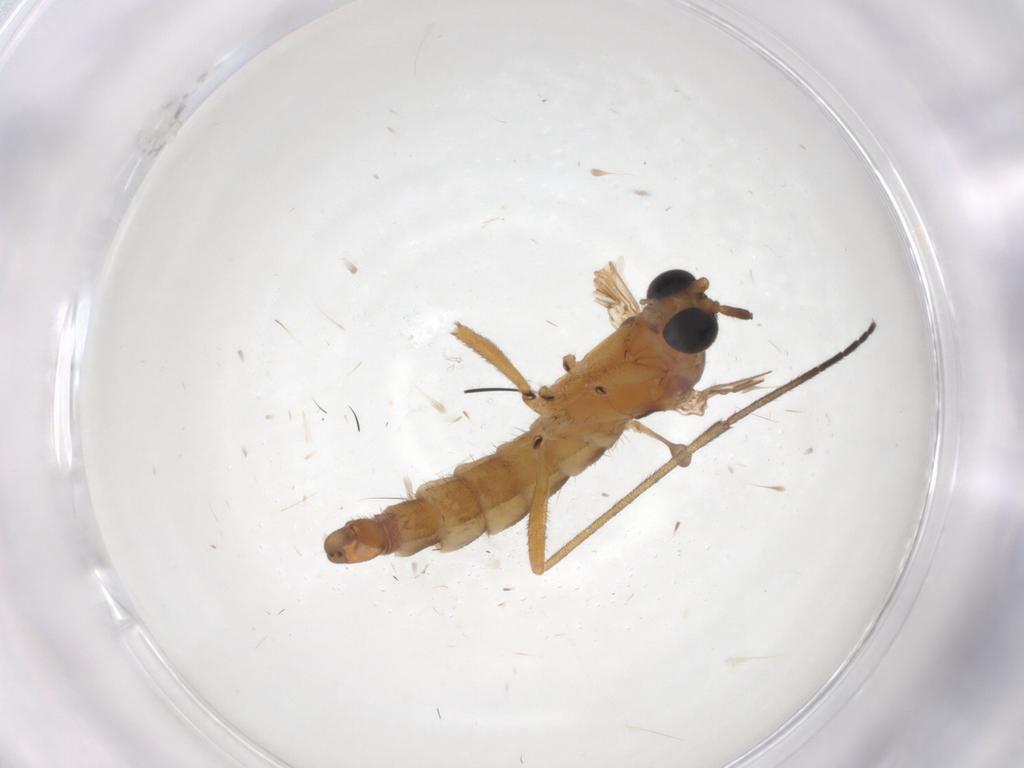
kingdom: Animalia
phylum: Arthropoda
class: Insecta
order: Diptera
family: Sciaridae
